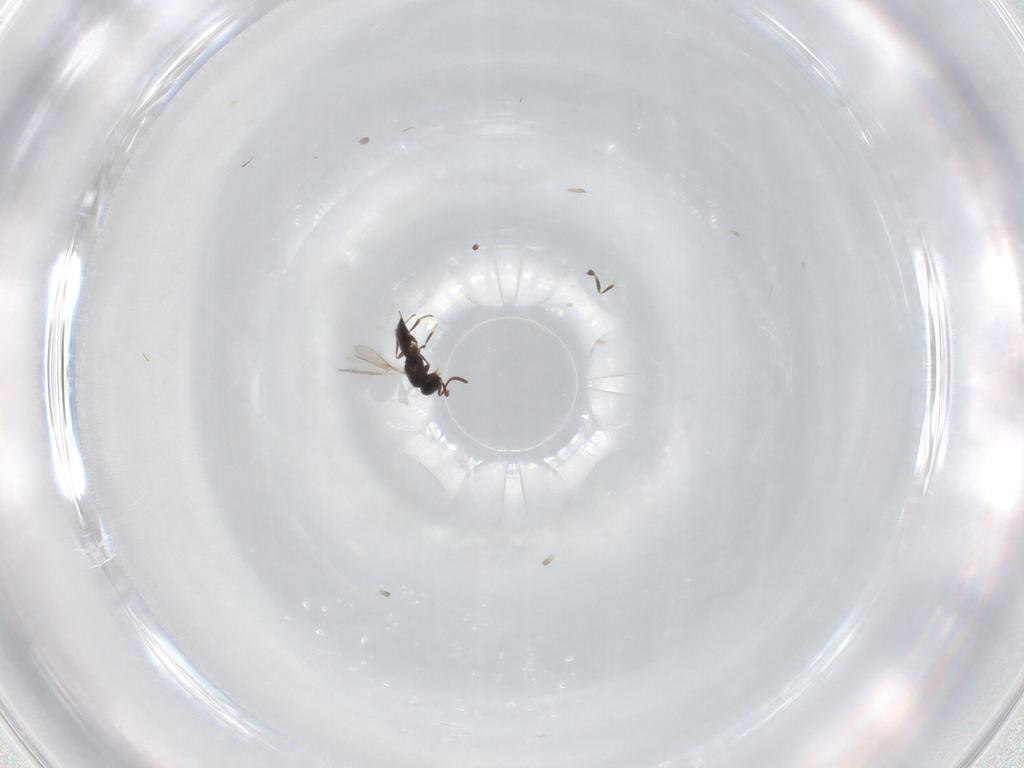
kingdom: Animalia
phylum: Arthropoda
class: Insecta
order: Hymenoptera
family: Scelionidae
